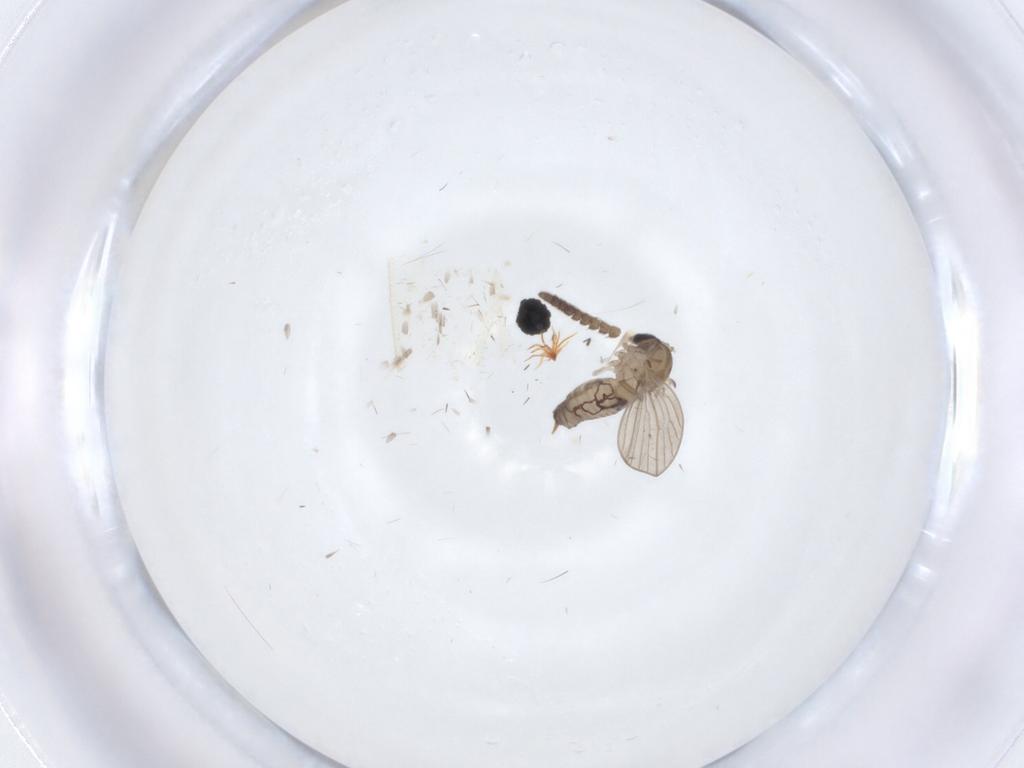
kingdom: Animalia
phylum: Arthropoda
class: Insecta
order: Diptera
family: Psychodidae
